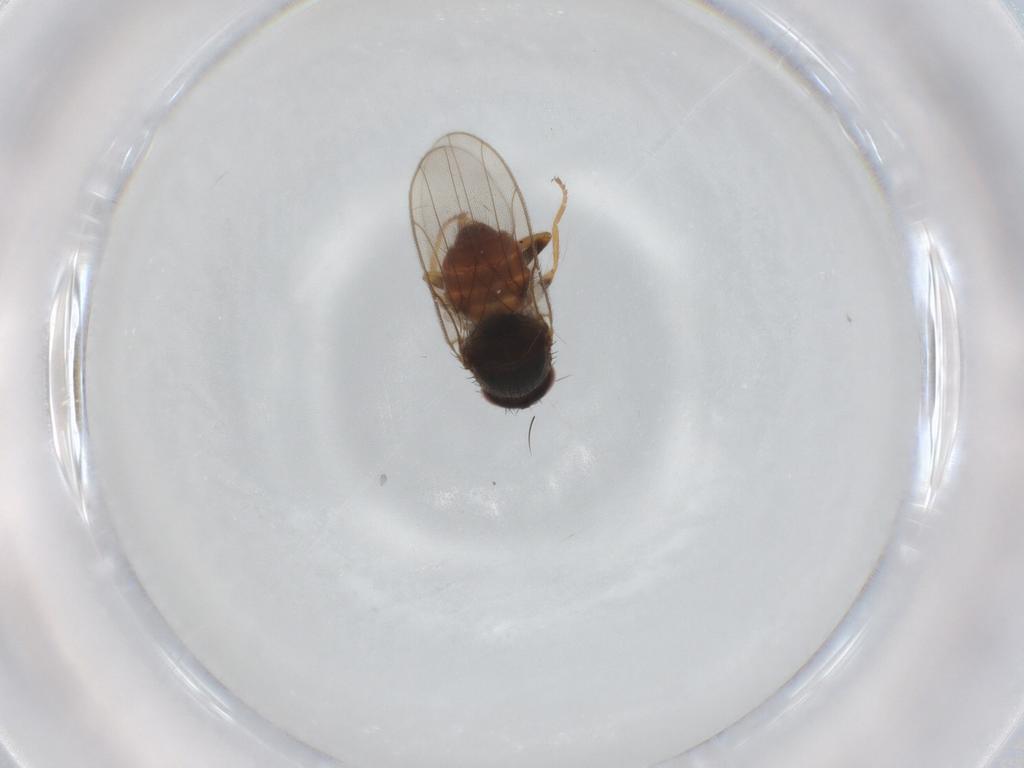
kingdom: Animalia
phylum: Arthropoda
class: Insecta
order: Diptera
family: Chloropidae
